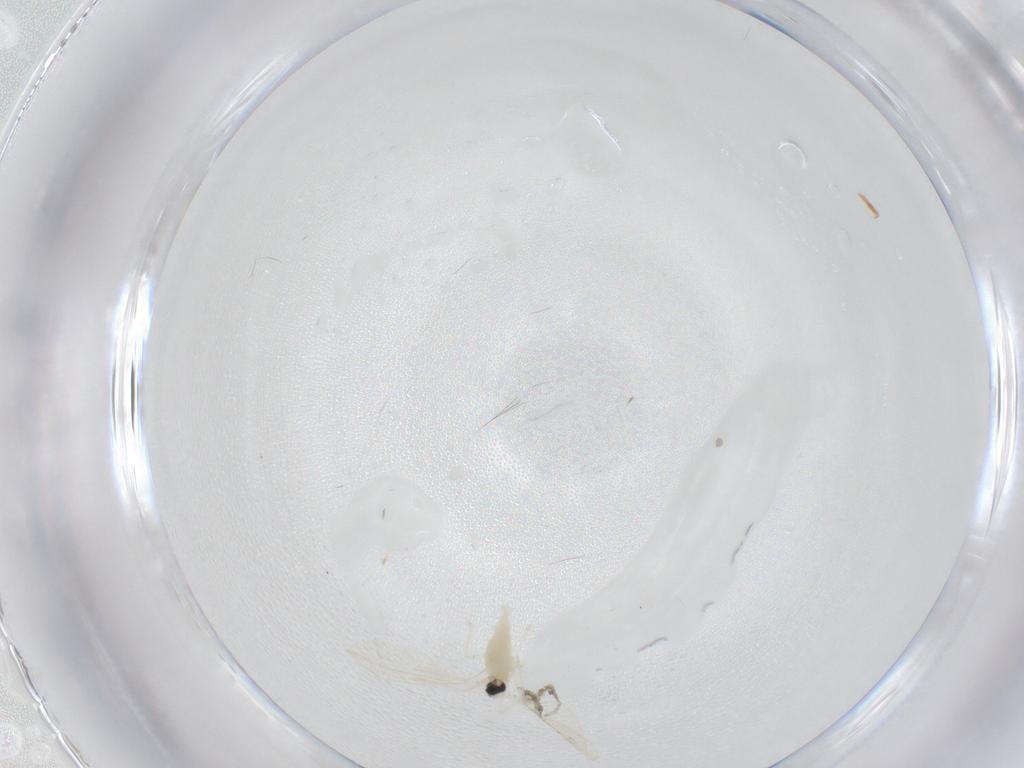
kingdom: Animalia
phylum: Arthropoda
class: Insecta
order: Diptera
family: Cecidomyiidae
